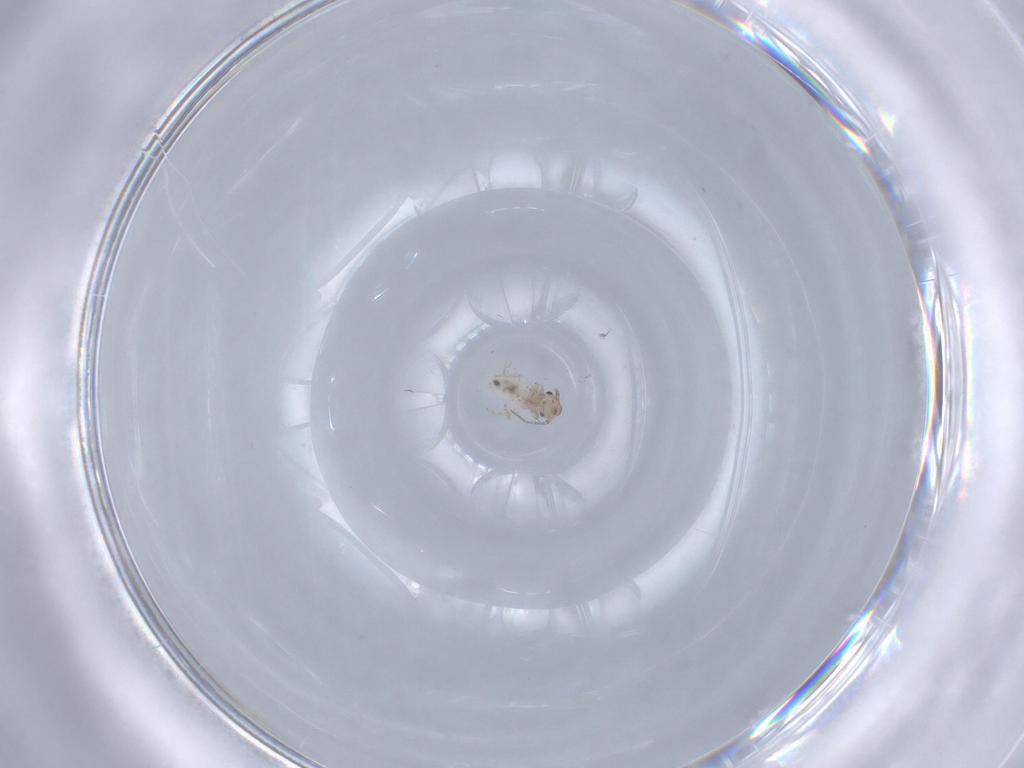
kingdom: Animalia
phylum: Arthropoda
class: Insecta
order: Psocodea
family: Lepidopsocidae
